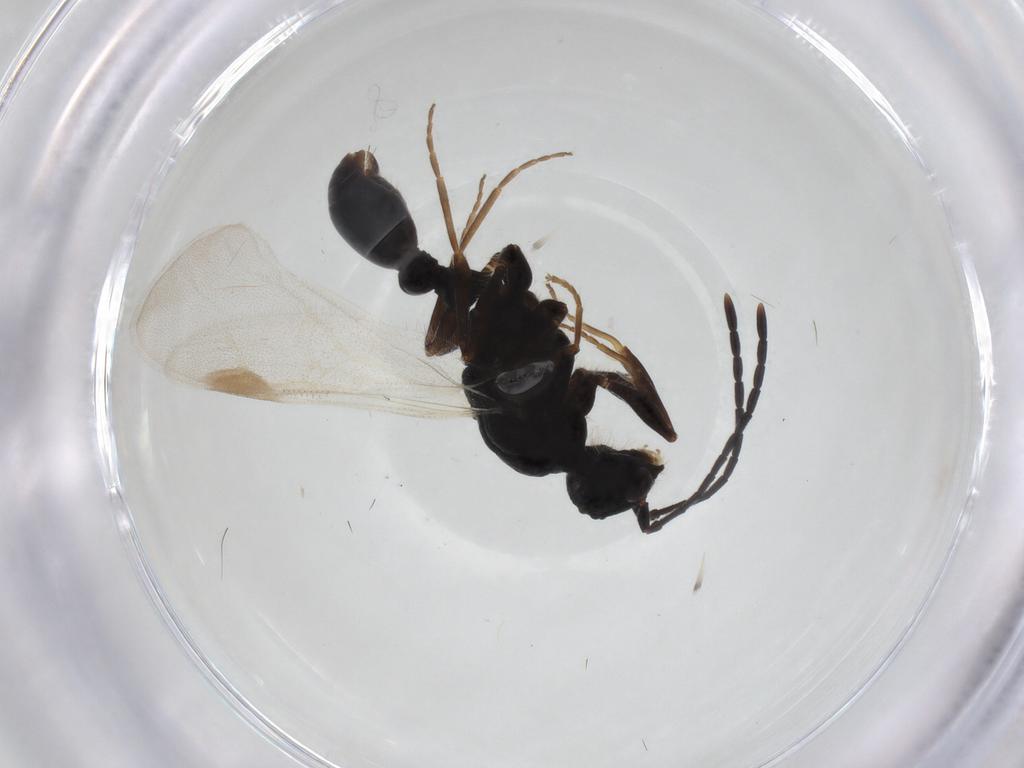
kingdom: Animalia
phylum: Arthropoda
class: Insecta
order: Hymenoptera
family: Formicidae
